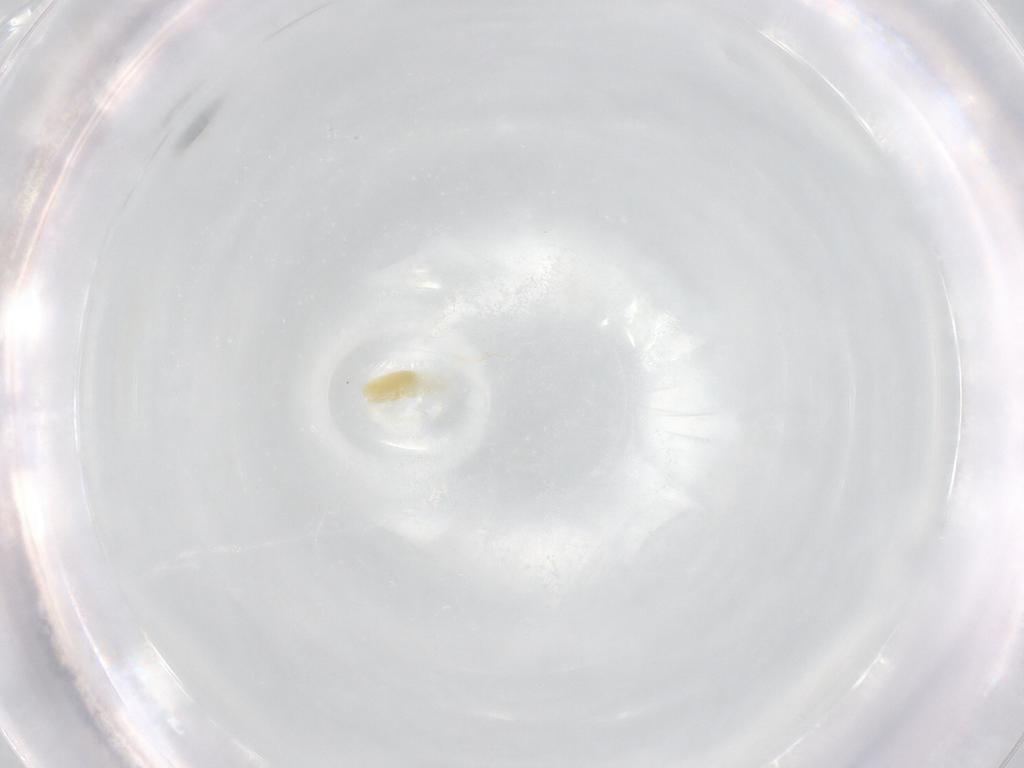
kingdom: Animalia
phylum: Arthropoda
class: Arachnida
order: Trombidiformes
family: Rhagidiidae
